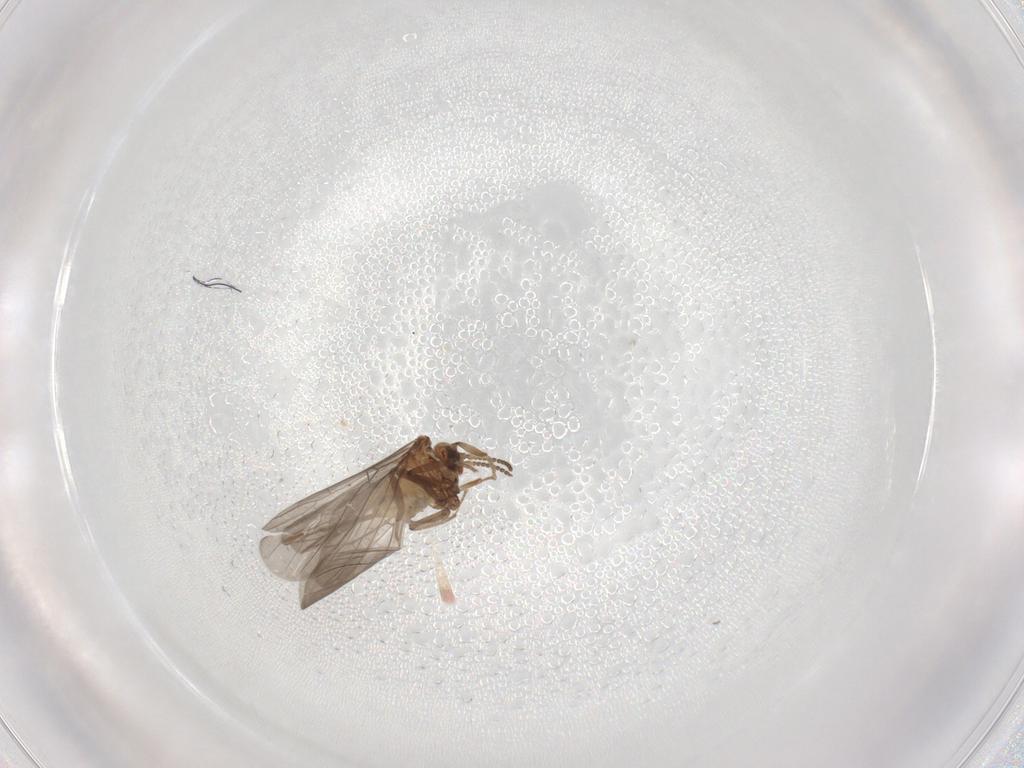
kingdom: Animalia
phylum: Arthropoda
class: Insecta
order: Neuroptera
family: Coniopterygidae
